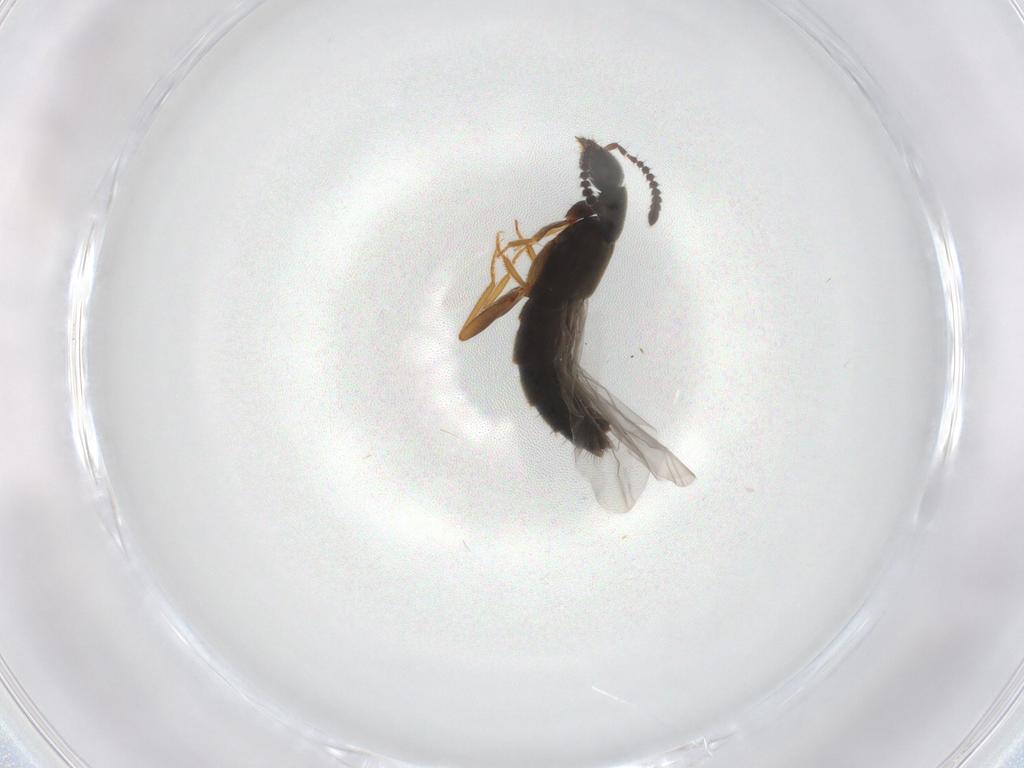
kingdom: Animalia
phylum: Arthropoda
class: Insecta
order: Coleoptera
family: Staphylinidae
